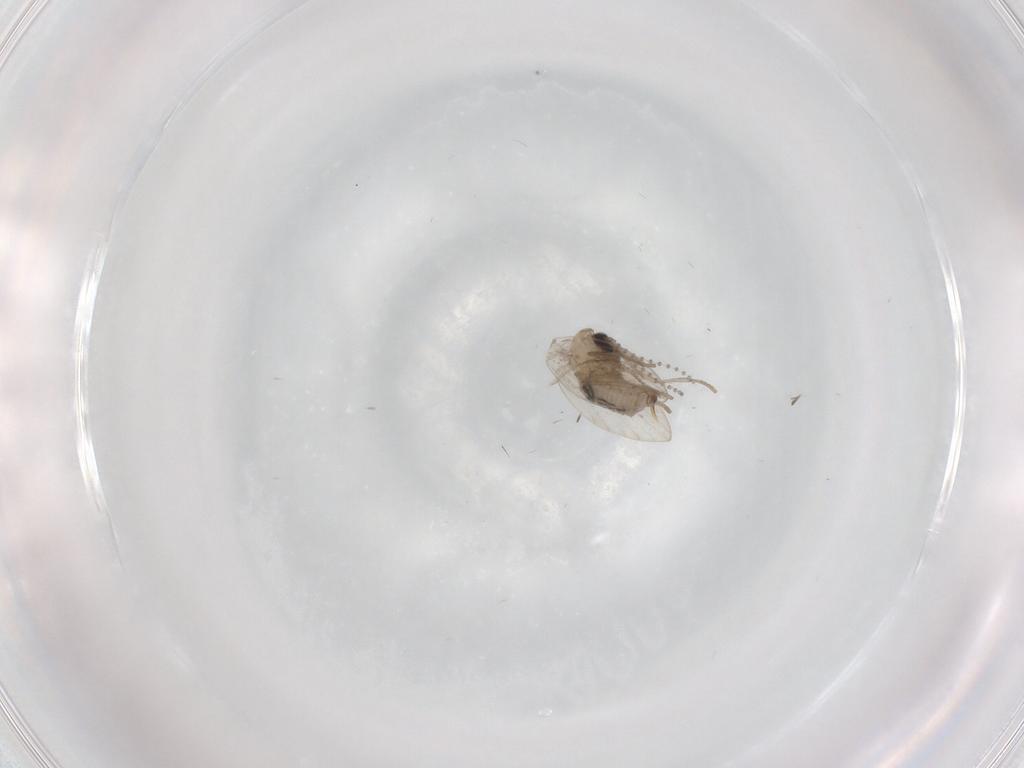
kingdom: Animalia
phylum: Arthropoda
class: Insecta
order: Diptera
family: Psychodidae
